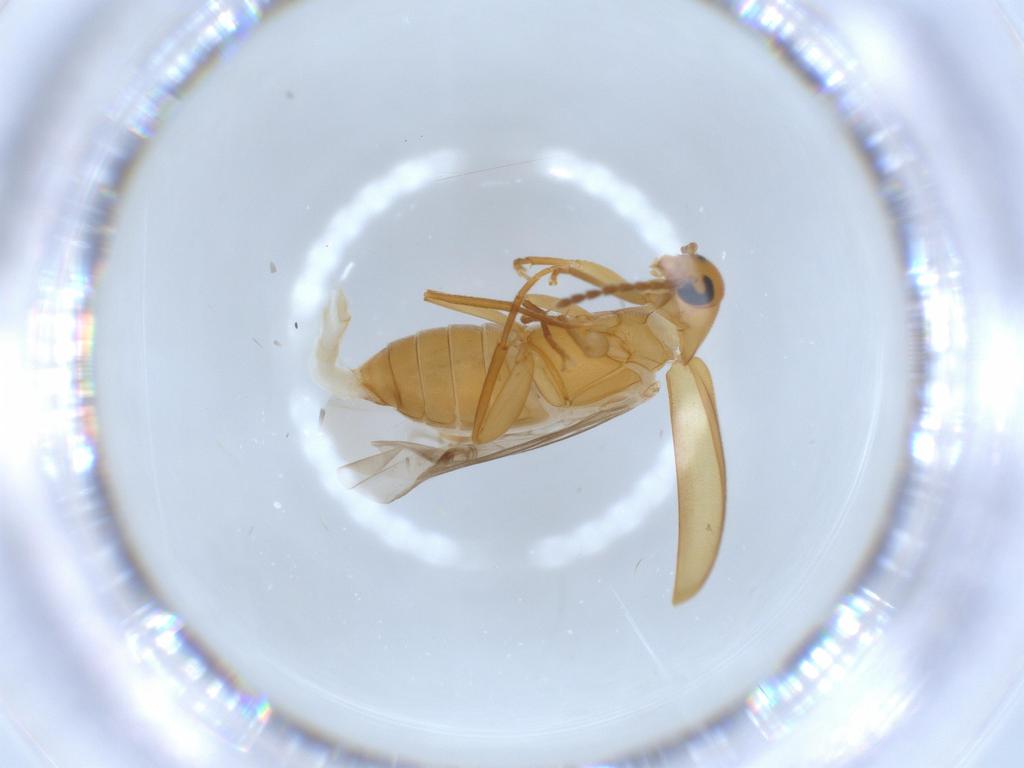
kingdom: Animalia
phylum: Arthropoda
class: Insecta
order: Coleoptera
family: Scraptiidae
